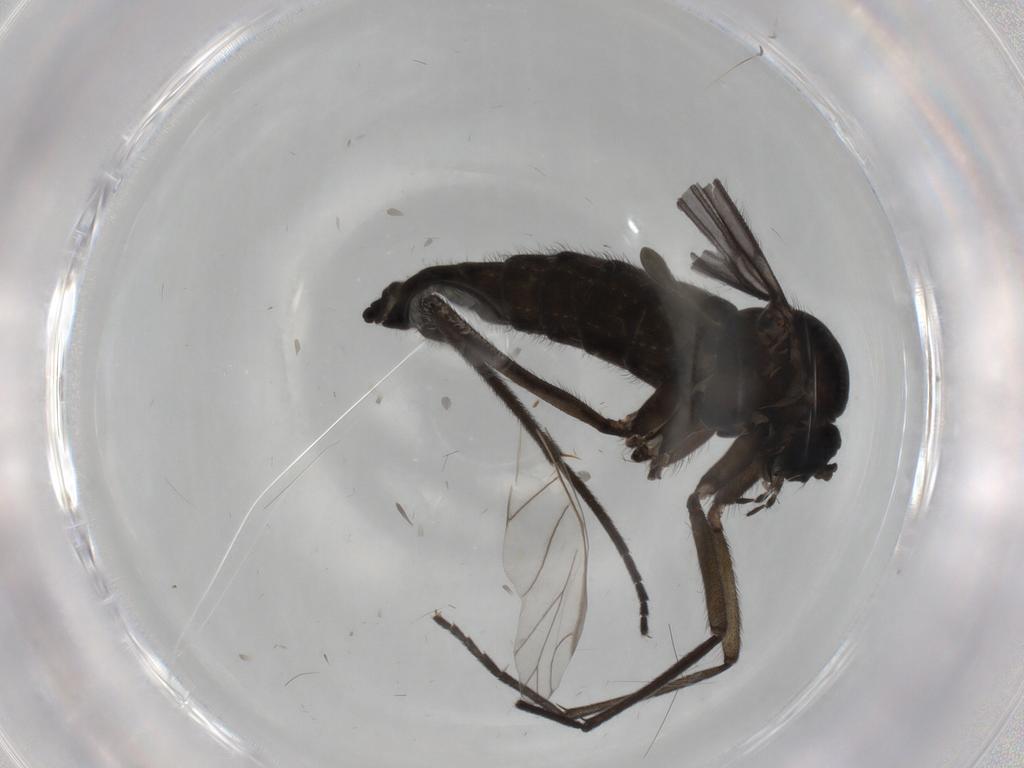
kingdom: Animalia
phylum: Arthropoda
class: Insecta
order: Diptera
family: Sciaridae
